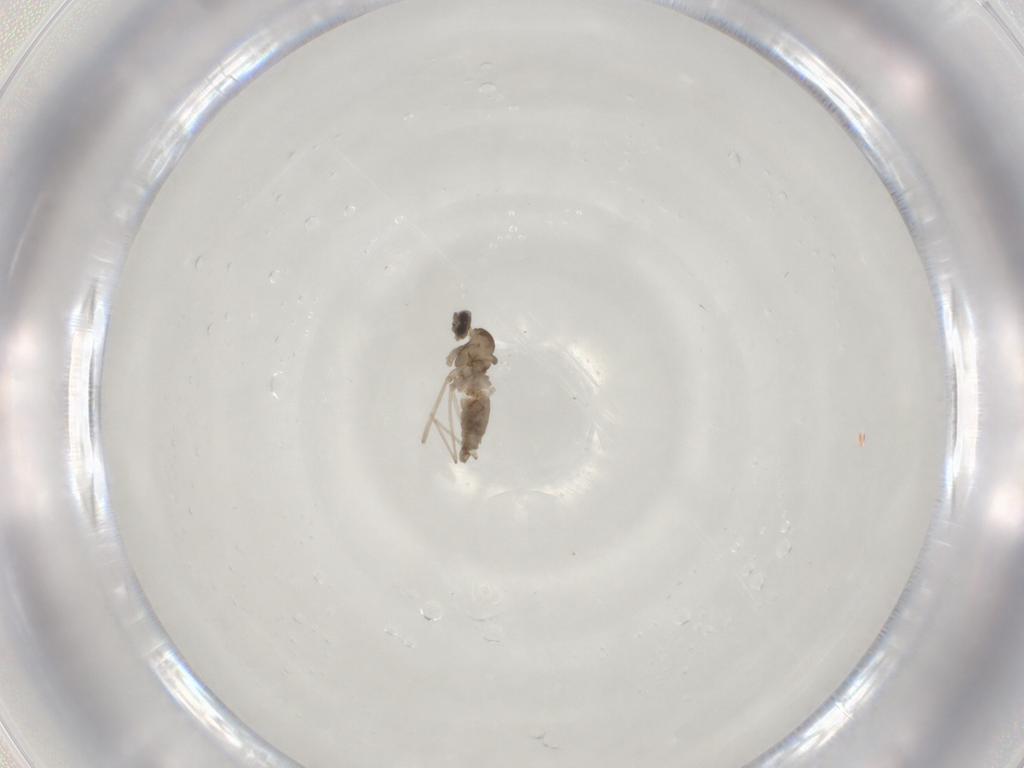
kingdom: Animalia
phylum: Arthropoda
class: Insecta
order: Diptera
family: Cecidomyiidae
